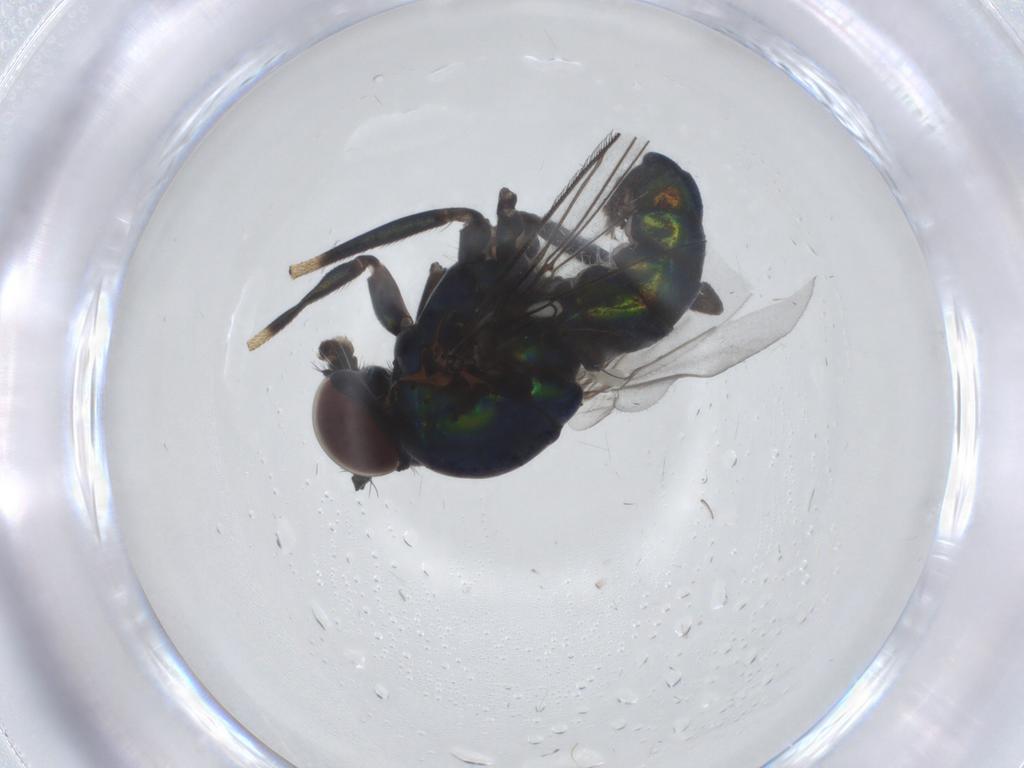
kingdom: Animalia
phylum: Arthropoda
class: Insecta
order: Diptera
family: Dolichopodidae
